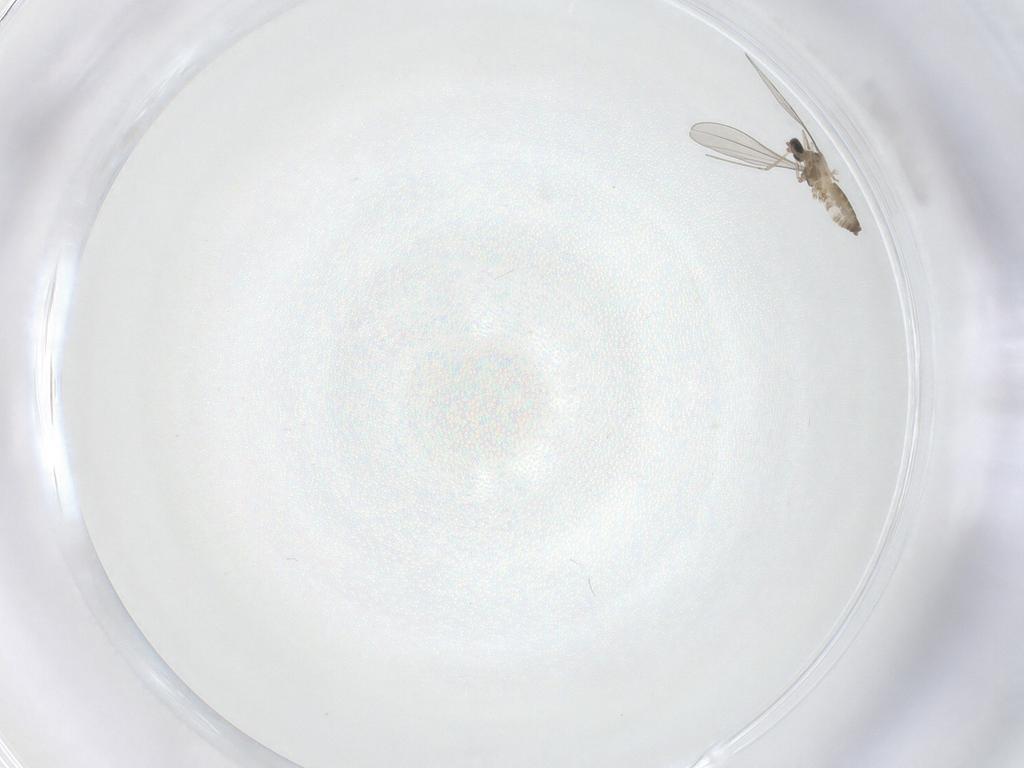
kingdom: Animalia
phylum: Arthropoda
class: Insecta
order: Diptera
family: Cecidomyiidae
